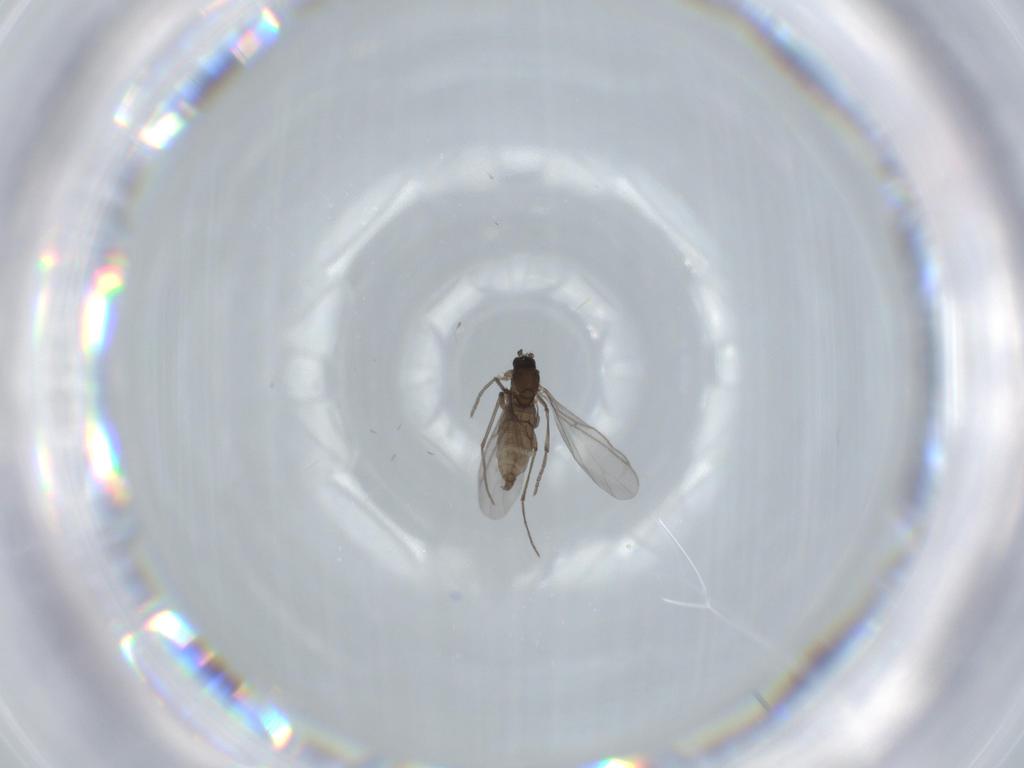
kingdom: Animalia
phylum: Arthropoda
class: Insecta
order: Diptera
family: Sciaridae
